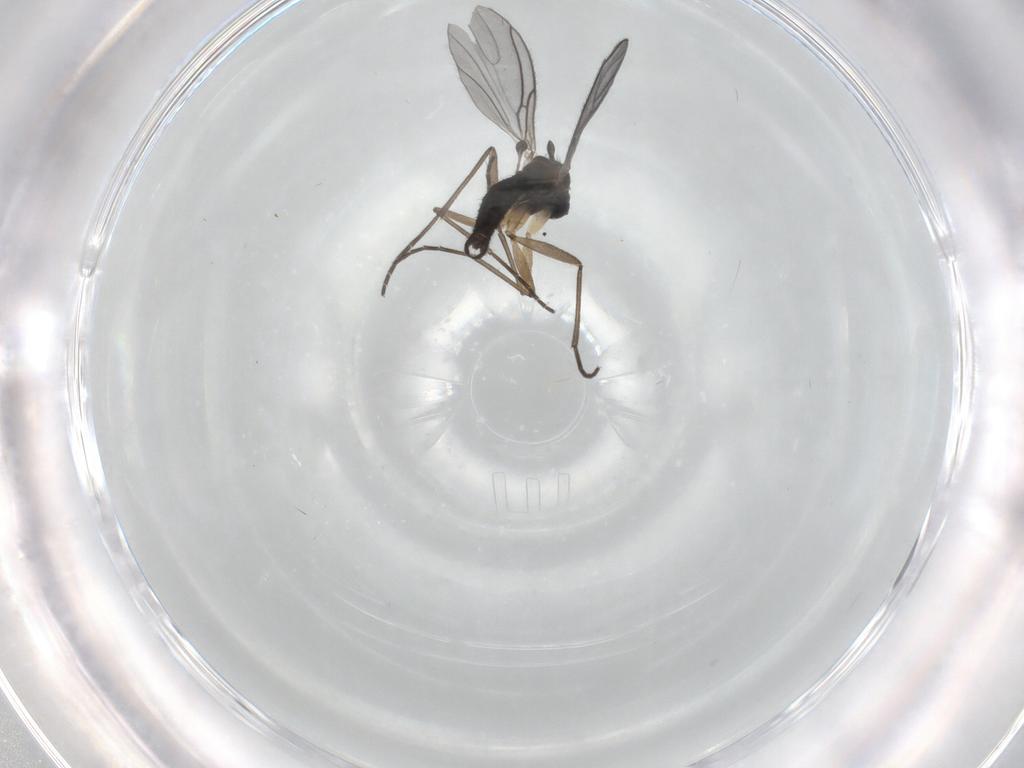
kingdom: Animalia
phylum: Arthropoda
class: Insecta
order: Diptera
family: Sciaridae
